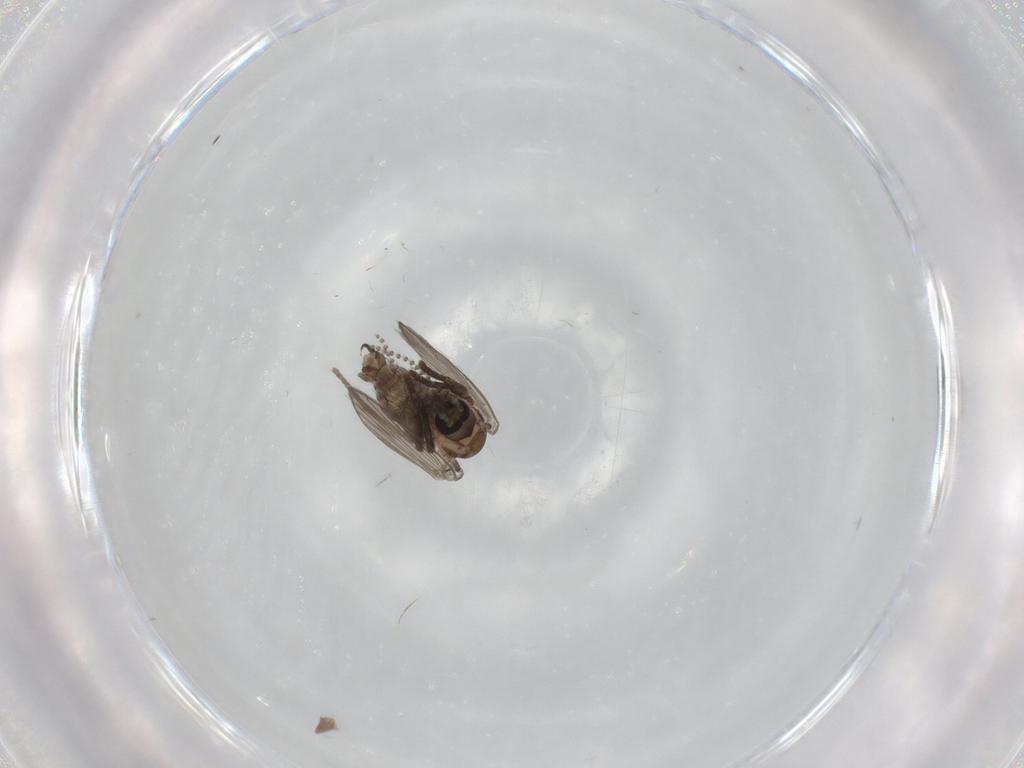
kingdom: Animalia
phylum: Arthropoda
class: Insecta
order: Diptera
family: Psychodidae
